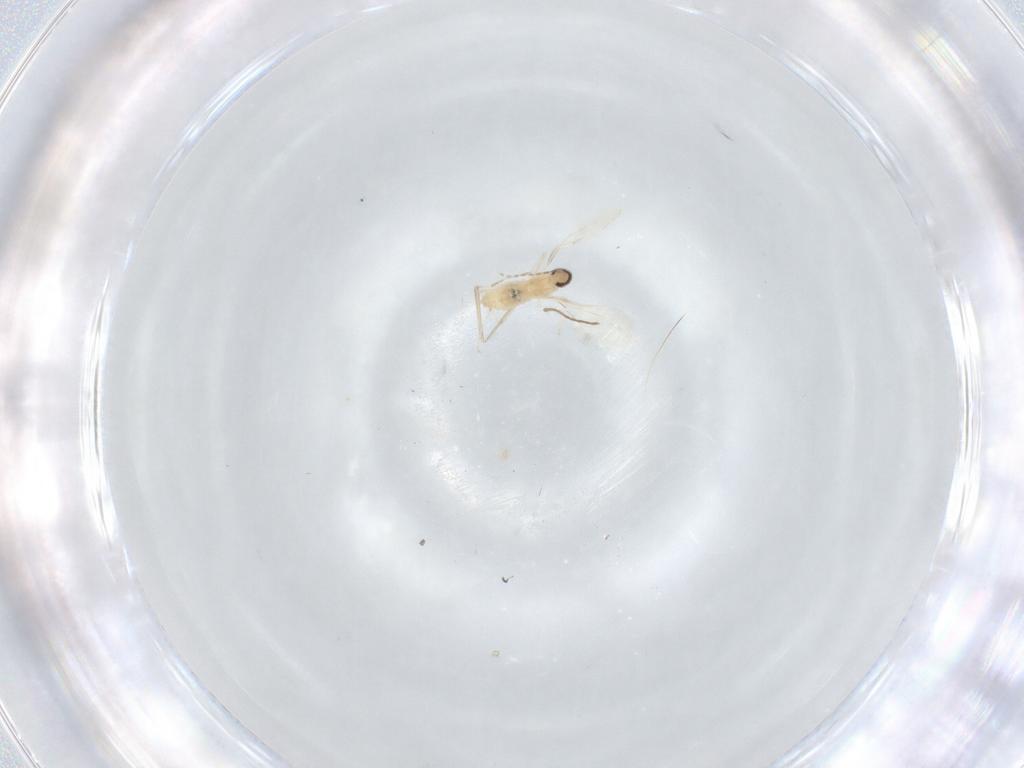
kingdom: Animalia
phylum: Arthropoda
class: Insecta
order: Diptera
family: Cecidomyiidae
